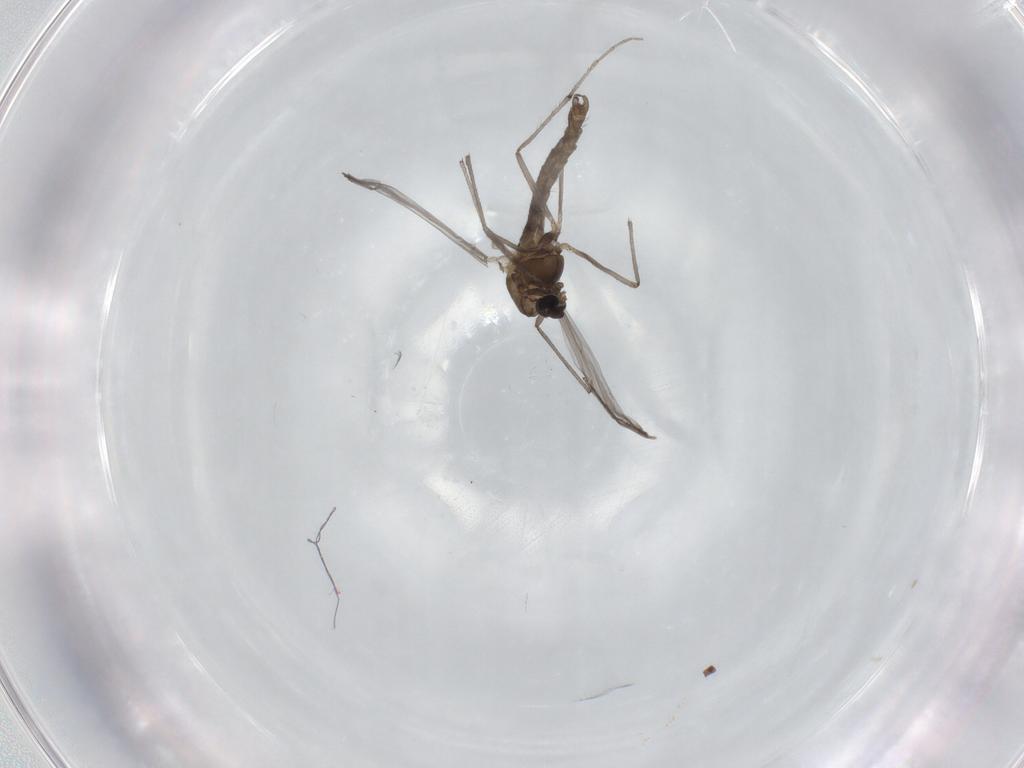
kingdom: Animalia
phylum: Arthropoda
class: Insecta
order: Diptera
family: Chironomidae
